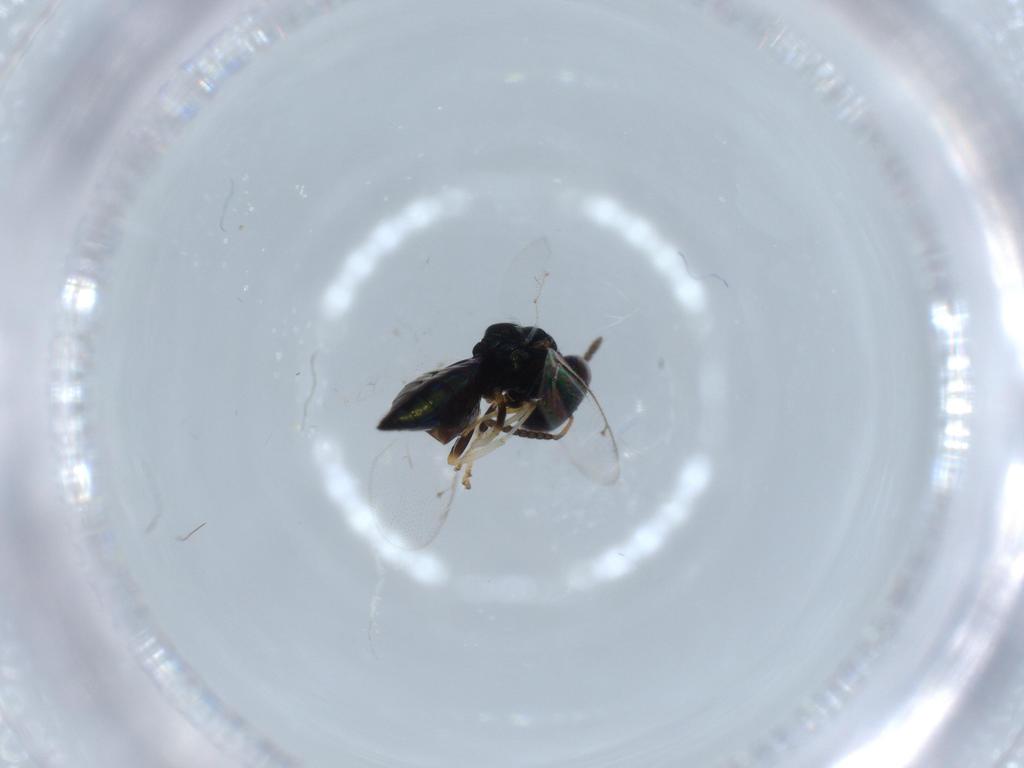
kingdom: Animalia
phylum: Arthropoda
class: Insecta
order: Hymenoptera
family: Pteromalidae
